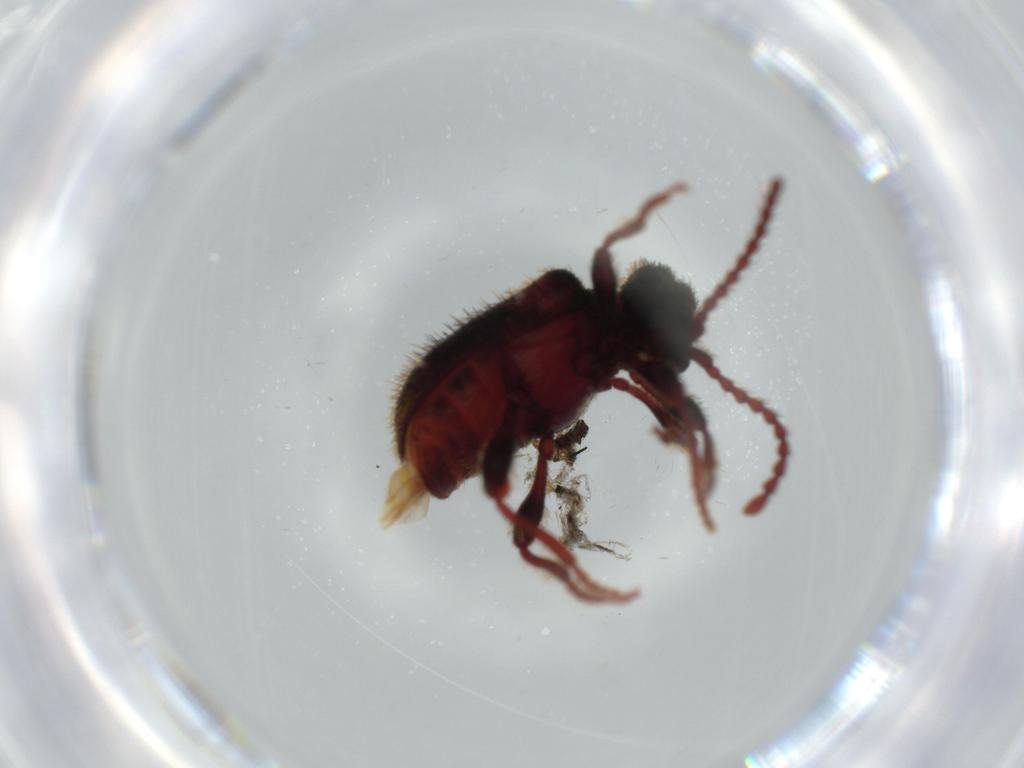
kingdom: Animalia
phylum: Arthropoda
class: Insecta
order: Coleoptera
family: Ptinidae
